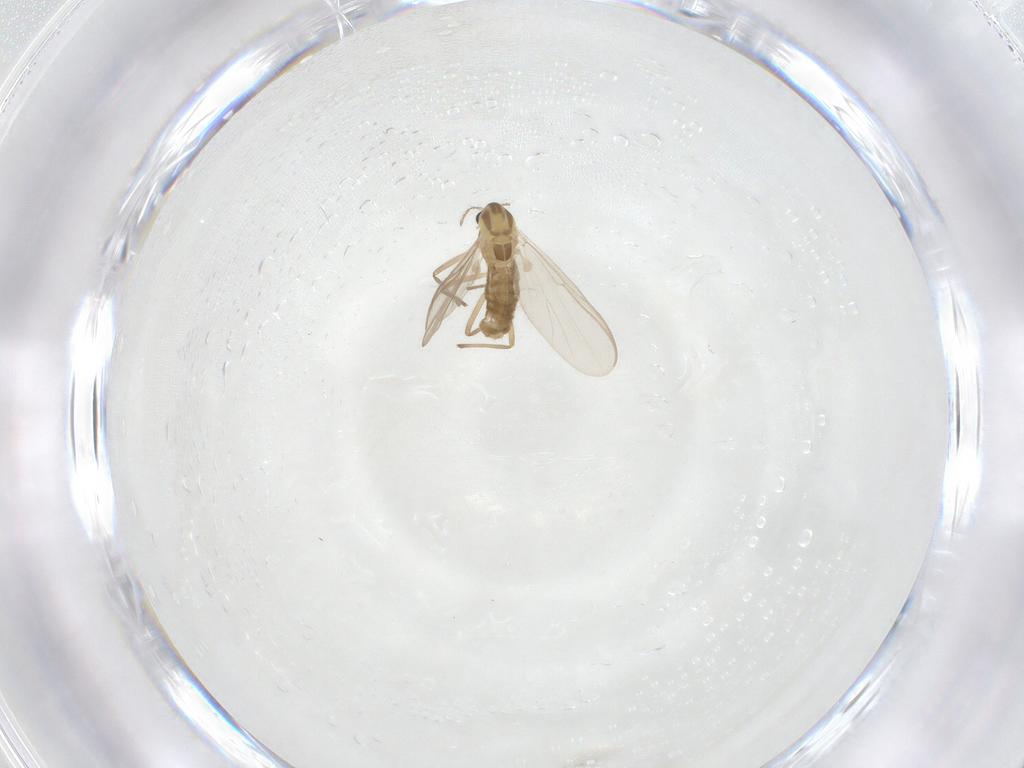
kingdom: Animalia
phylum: Arthropoda
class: Insecta
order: Diptera
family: Chironomidae
